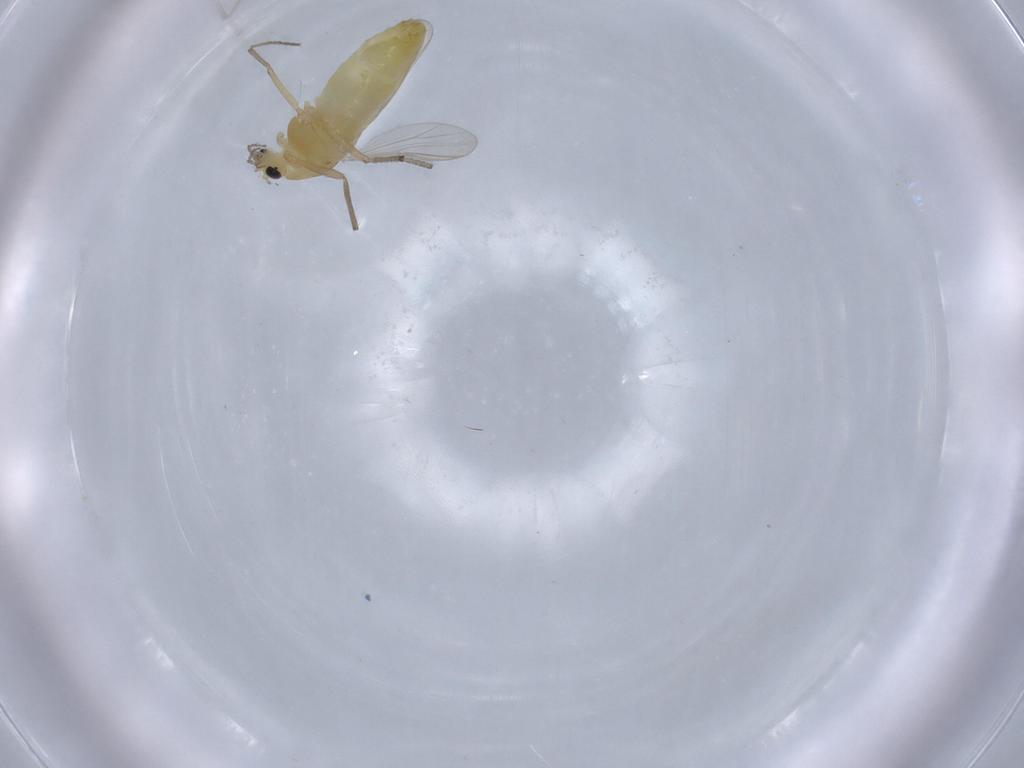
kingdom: Animalia
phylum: Arthropoda
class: Insecta
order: Diptera
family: Chironomidae
